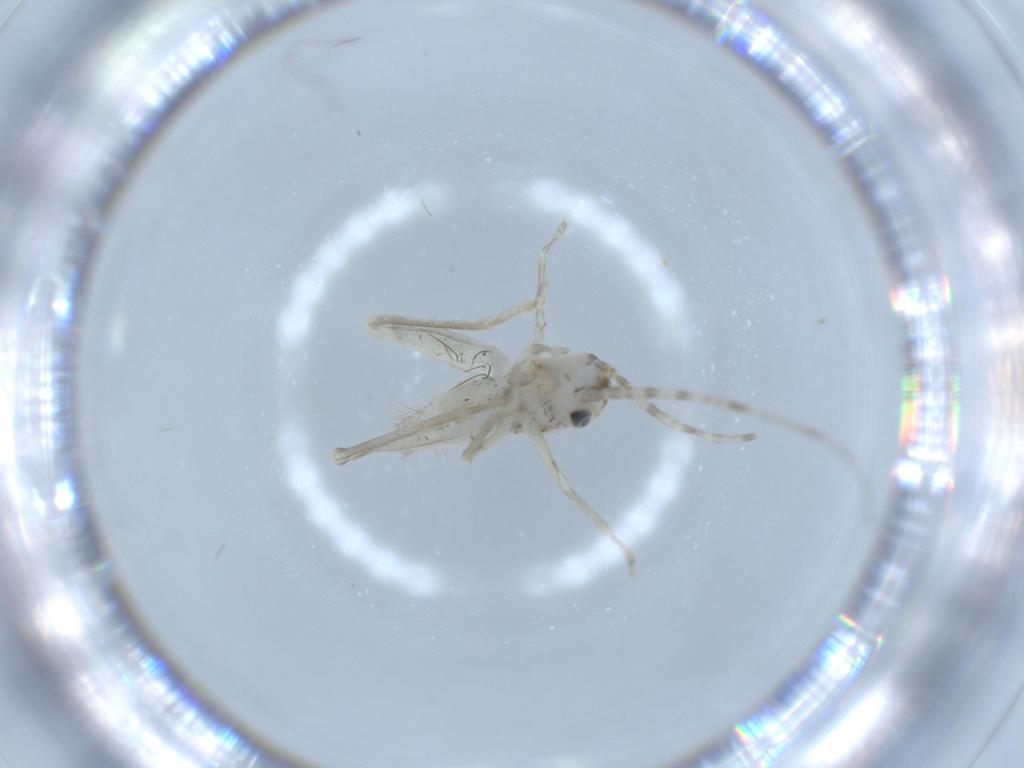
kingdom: Animalia
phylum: Arthropoda
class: Insecta
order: Orthoptera
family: Trigonidiidae
